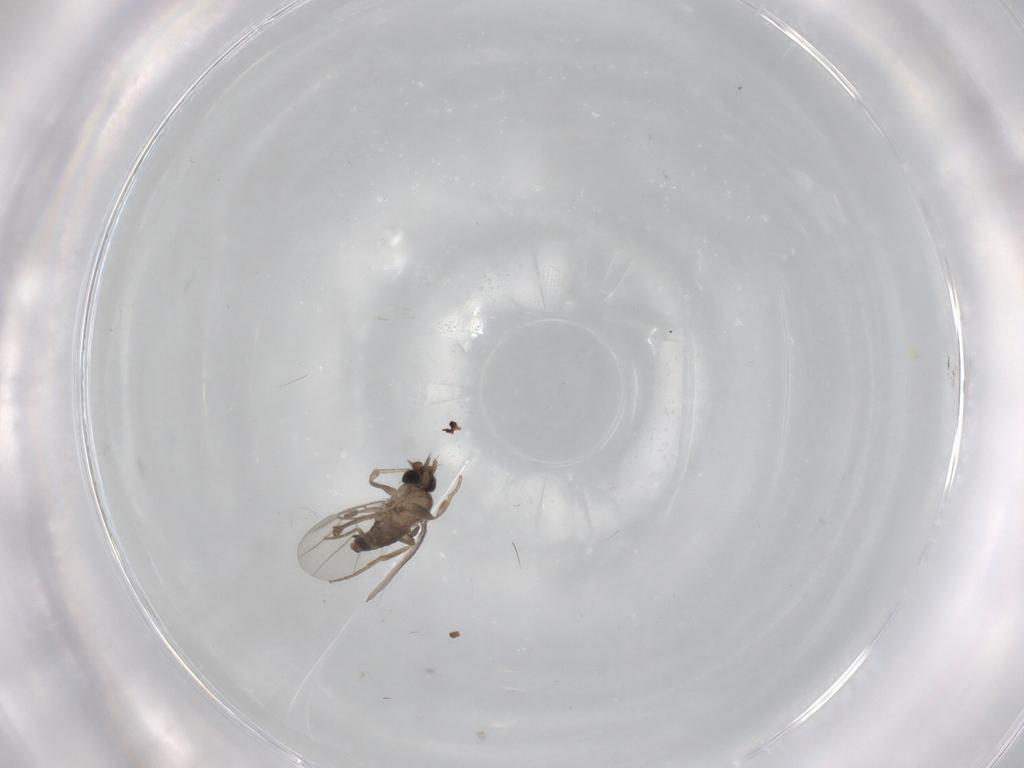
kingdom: Animalia
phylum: Arthropoda
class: Insecta
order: Diptera
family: Phoridae
